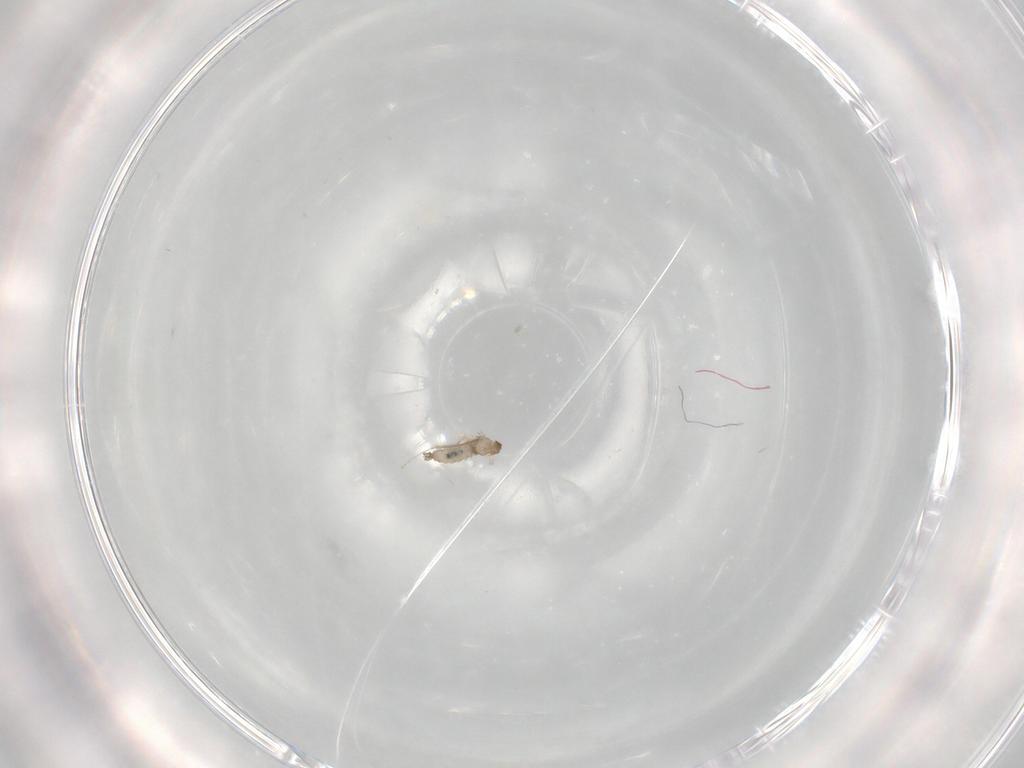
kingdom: Animalia
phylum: Arthropoda
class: Insecta
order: Diptera
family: Cecidomyiidae
